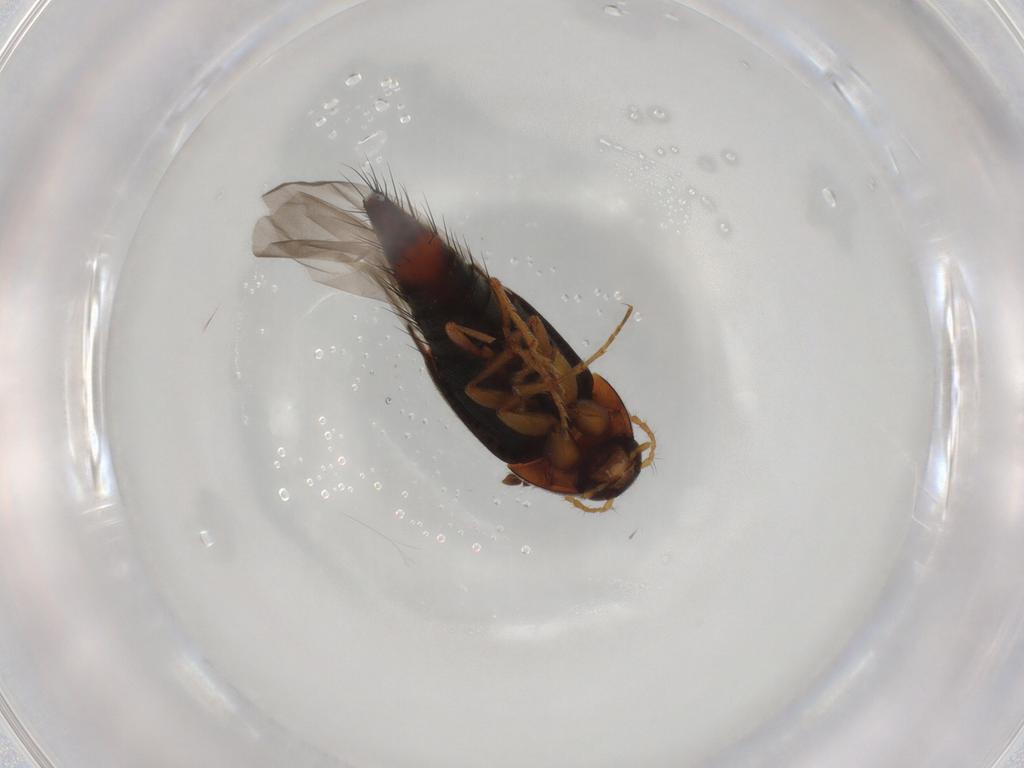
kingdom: Animalia
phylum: Arthropoda
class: Insecta
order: Coleoptera
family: Staphylinidae
